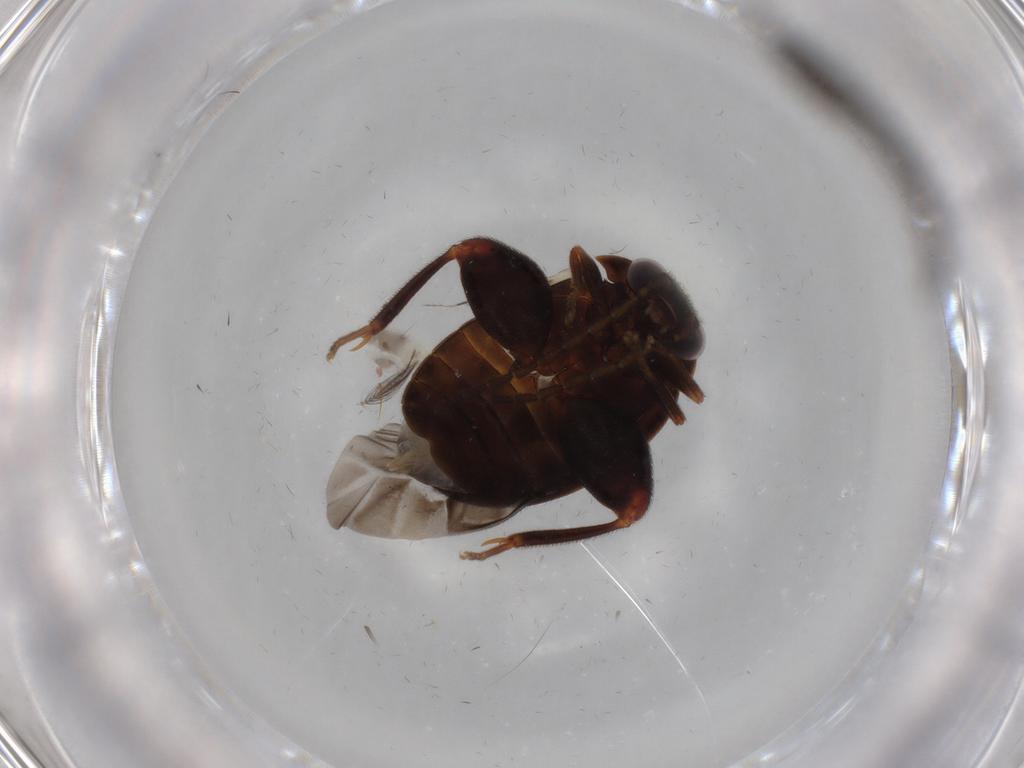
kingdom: Animalia
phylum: Arthropoda
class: Insecta
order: Coleoptera
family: Scirtidae
